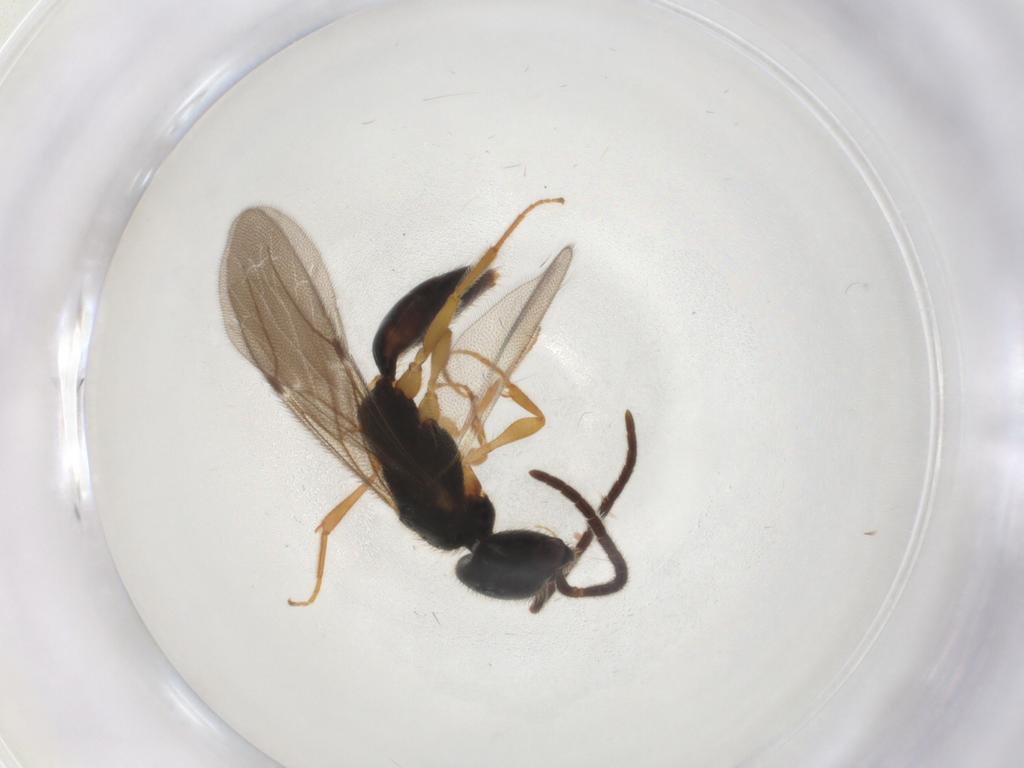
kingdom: Animalia
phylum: Arthropoda
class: Insecta
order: Hymenoptera
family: Bethylidae
